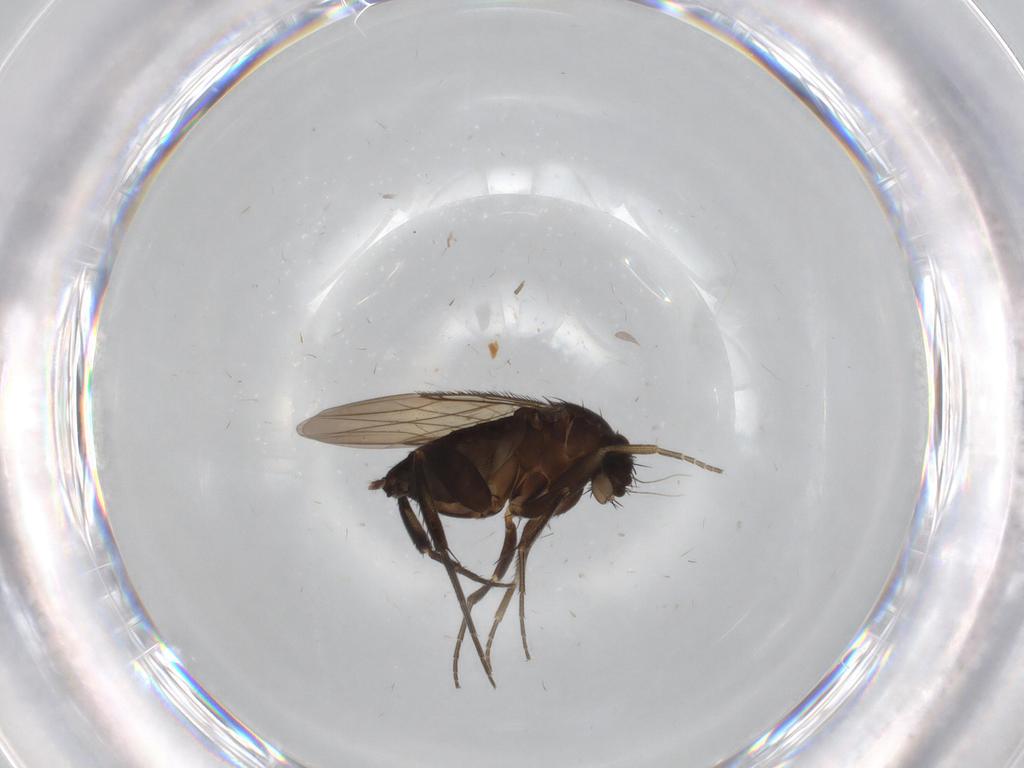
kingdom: Animalia
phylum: Arthropoda
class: Insecta
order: Diptera
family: Phoridae
